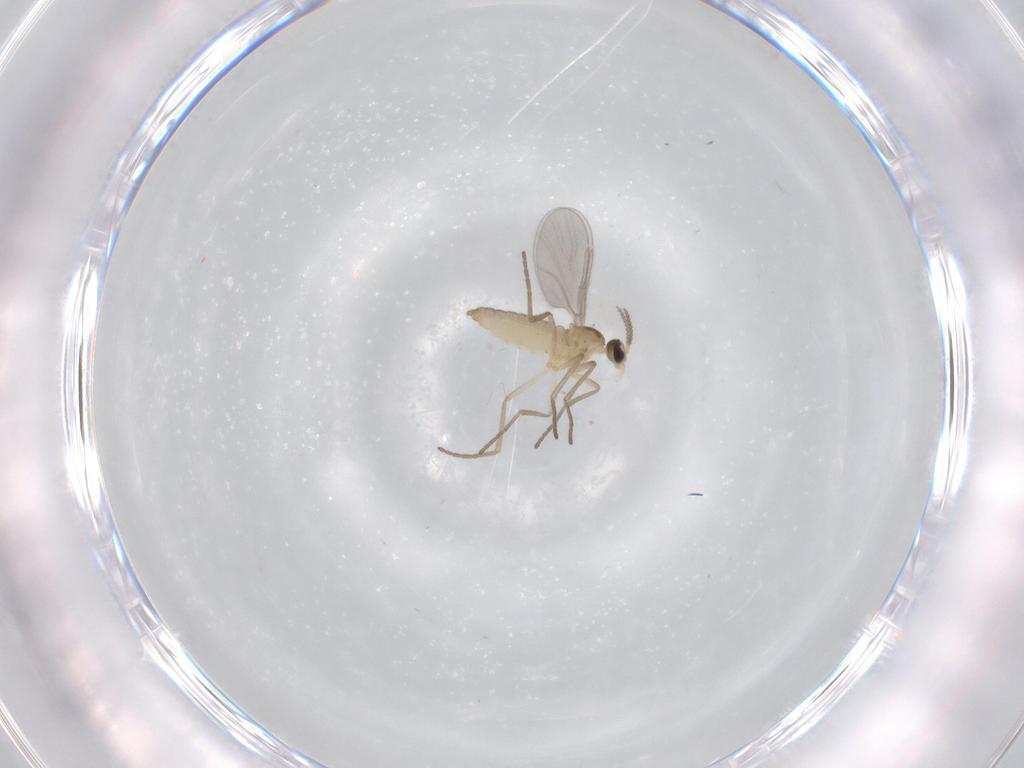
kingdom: Animalia
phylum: Arthropoda
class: Insecta
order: Diptera
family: Cecidomyiidae
